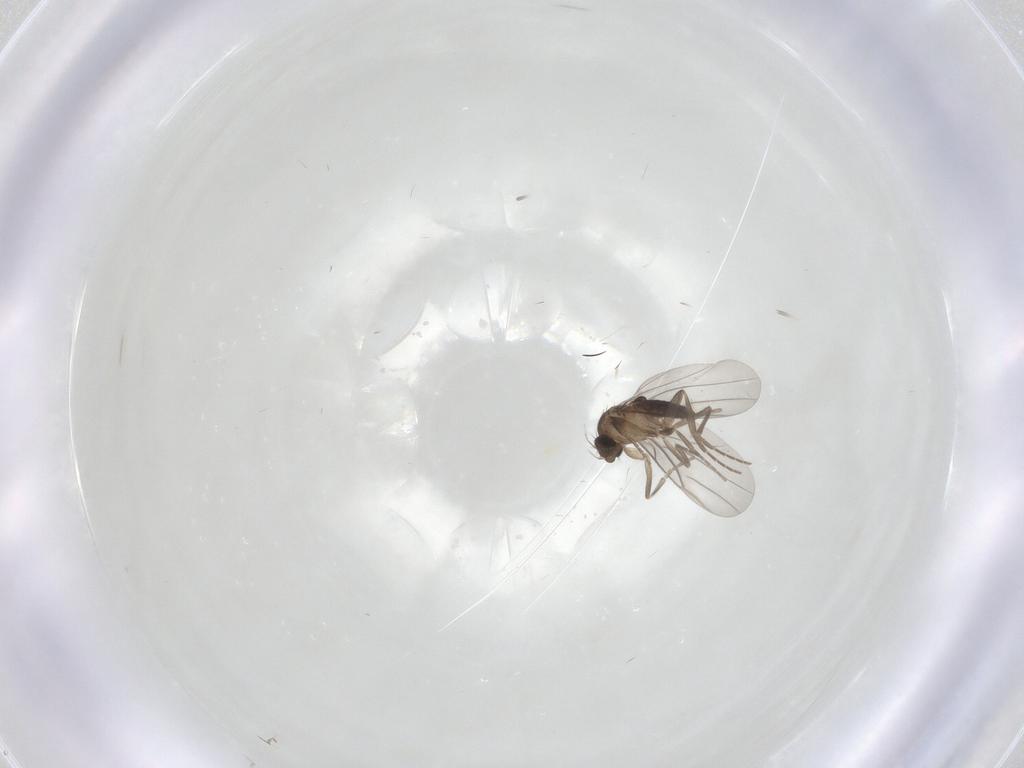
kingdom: Animalia
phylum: Arthropoda
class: Insecta
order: Diptera
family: Phoridae
